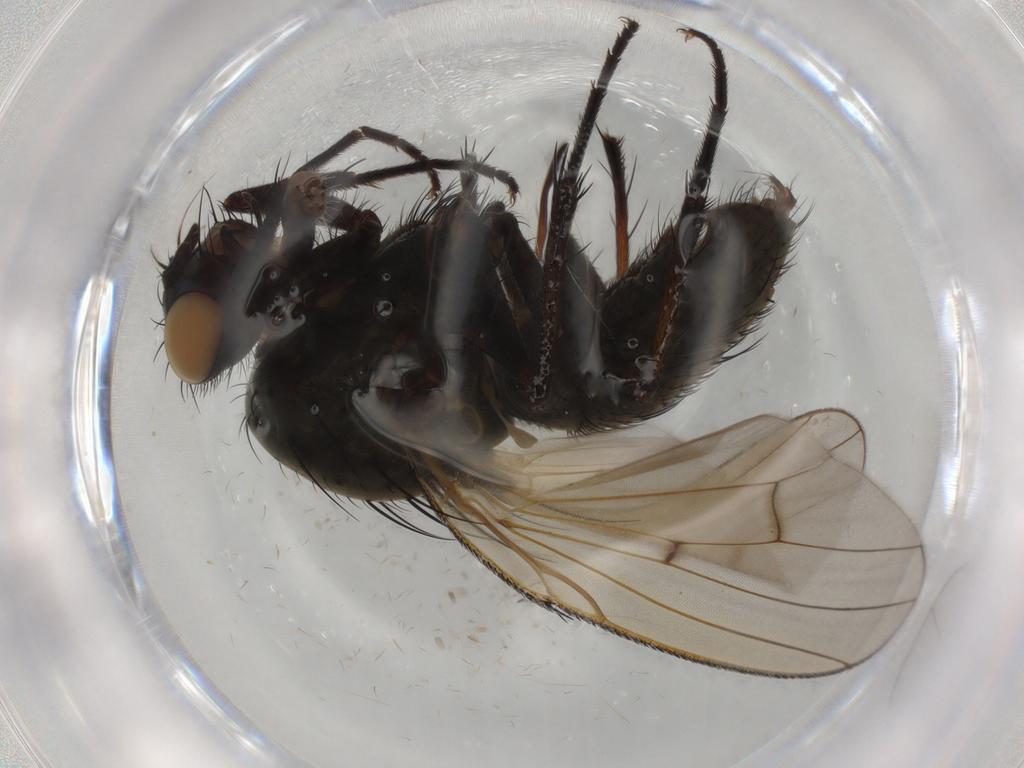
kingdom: Animalia
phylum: Arthropoda
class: Insecta
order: Diptera
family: Anthomyiidae
